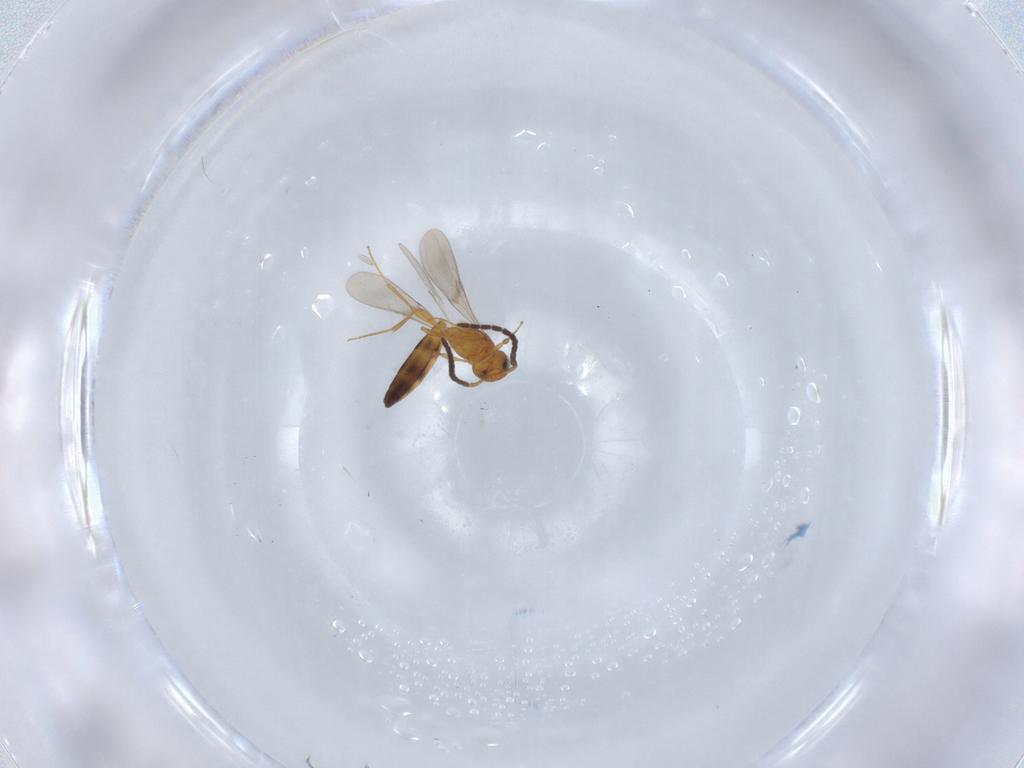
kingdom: Animalia
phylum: Arthropoda
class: Insecta
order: Hymenoptera
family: Scelionidae
